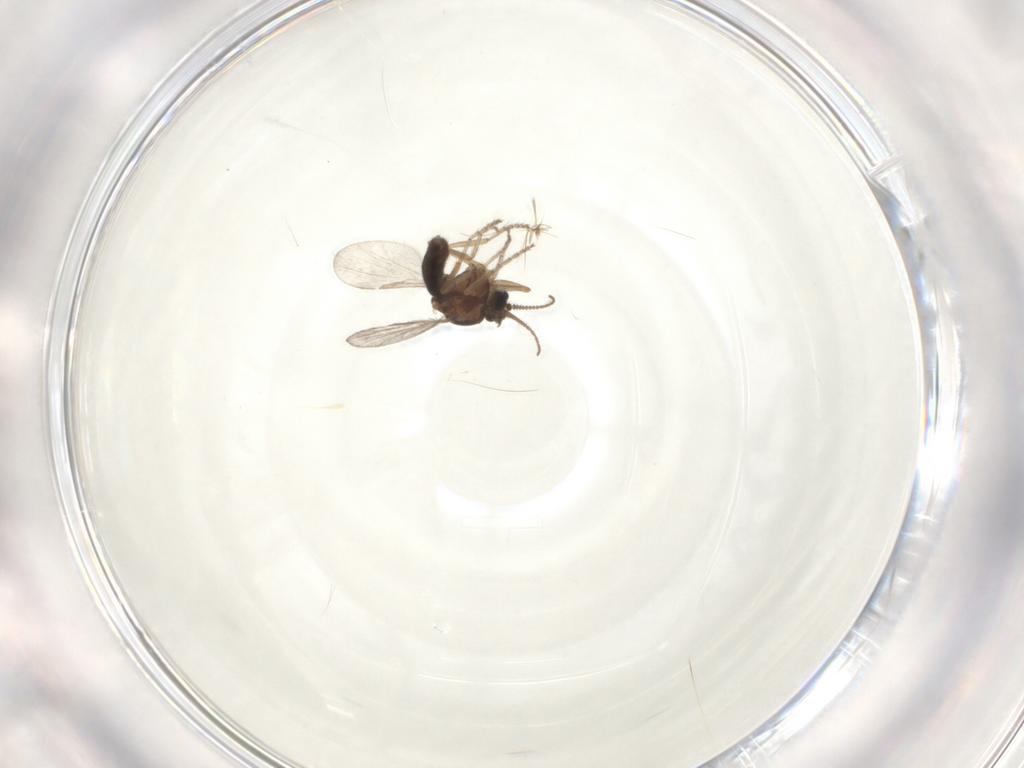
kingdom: Animalia
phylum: Arthropoda
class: Insecta
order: Diptera
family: Ceratopogonidae
